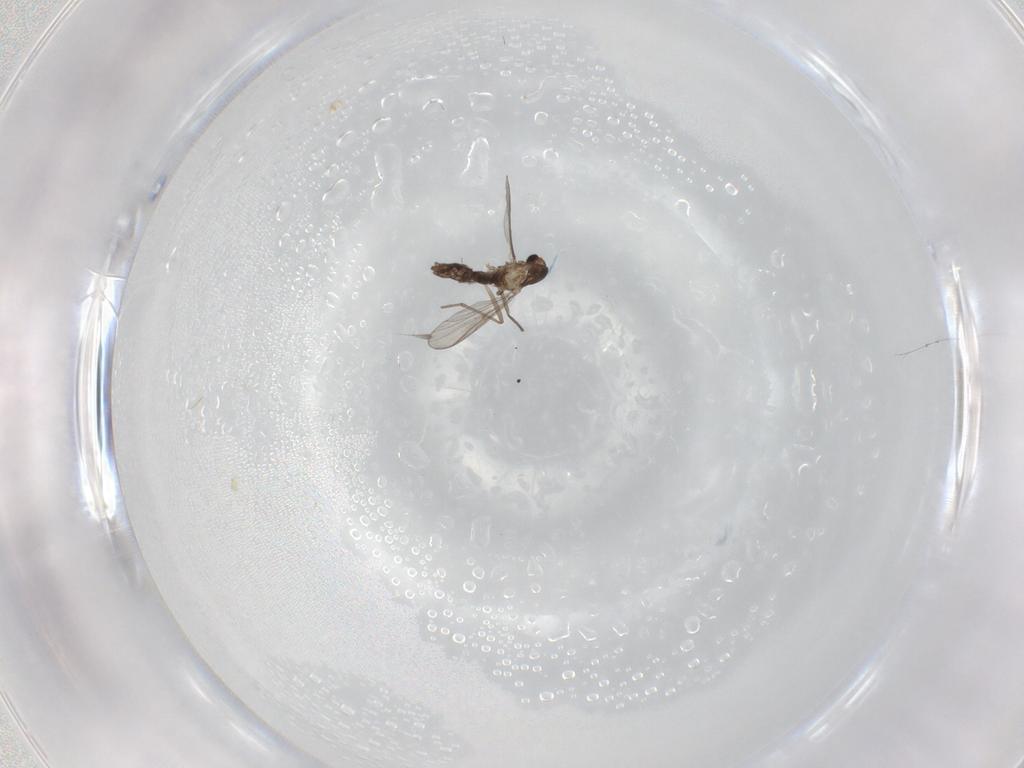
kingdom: Animalia
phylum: Arthropoda
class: Insecta
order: Diptera
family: Chironomidae
